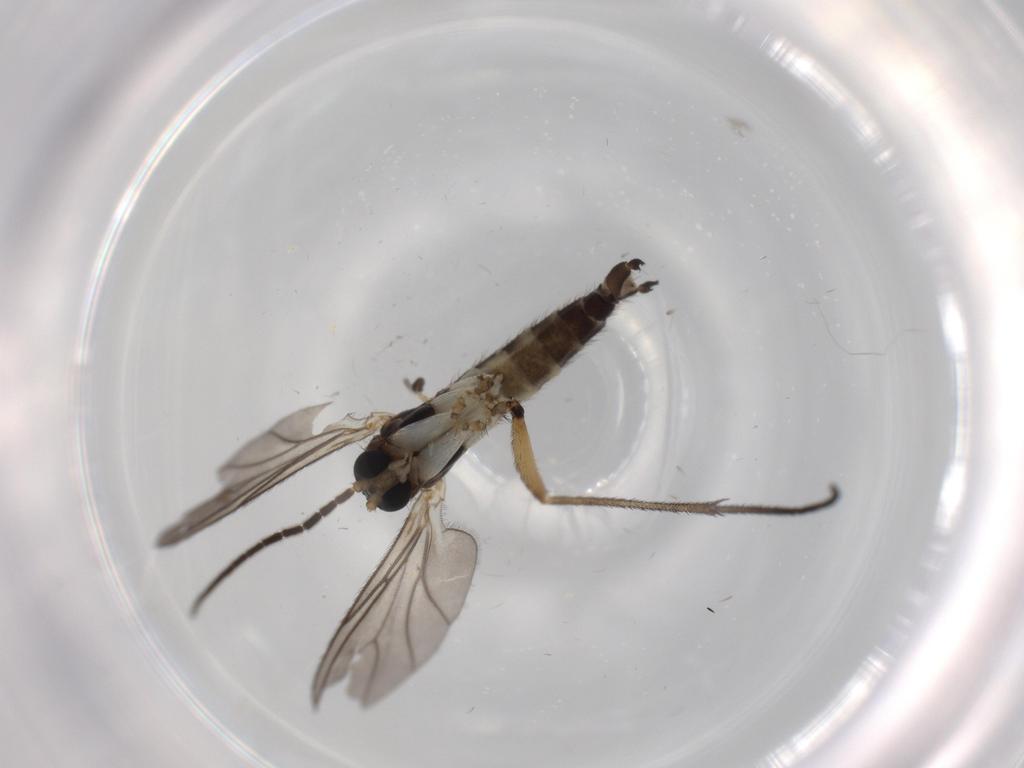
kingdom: Animalia
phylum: Arthropoda
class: Insecta
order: Diptera
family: Sciaridae
